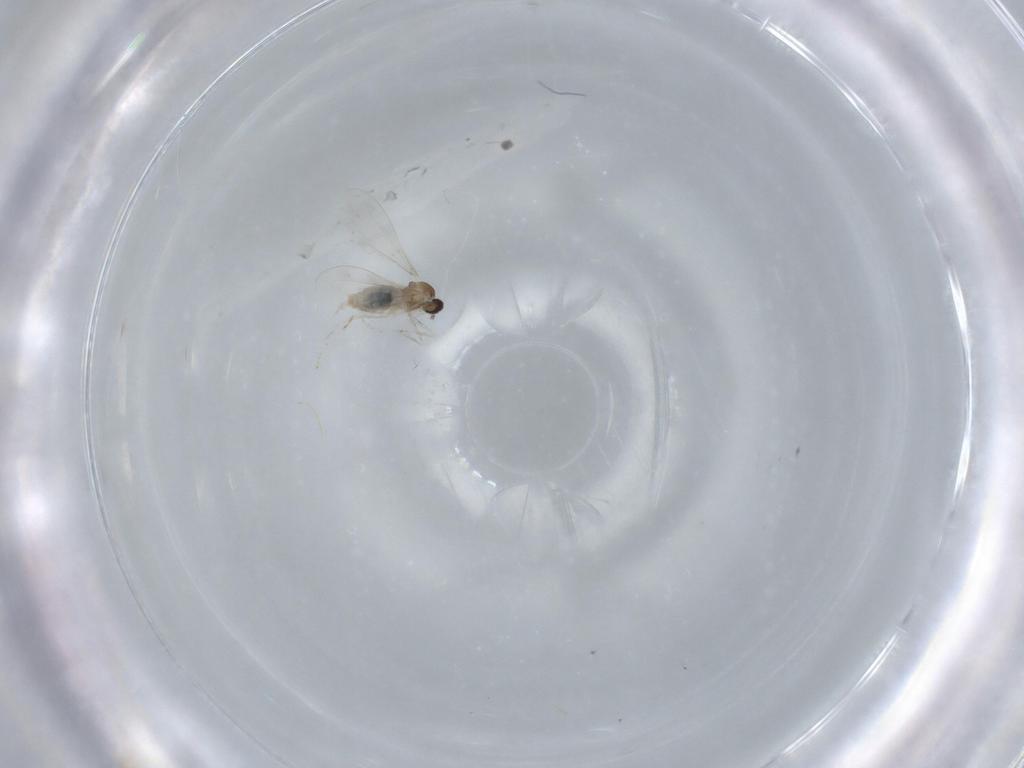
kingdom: Animalia
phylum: Arthropoda
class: Insecta
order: Diptera
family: Cecidomyiidae
